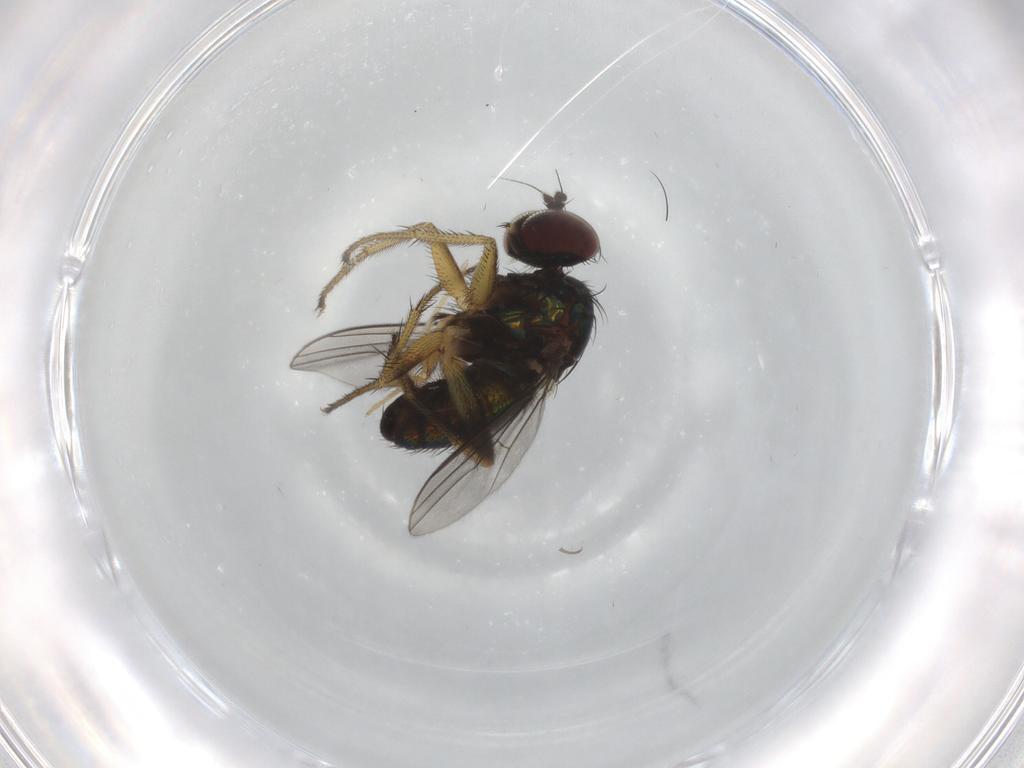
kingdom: Animalia
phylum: Arthropoda
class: Insecta
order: Diptera
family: Dolichopodidae
